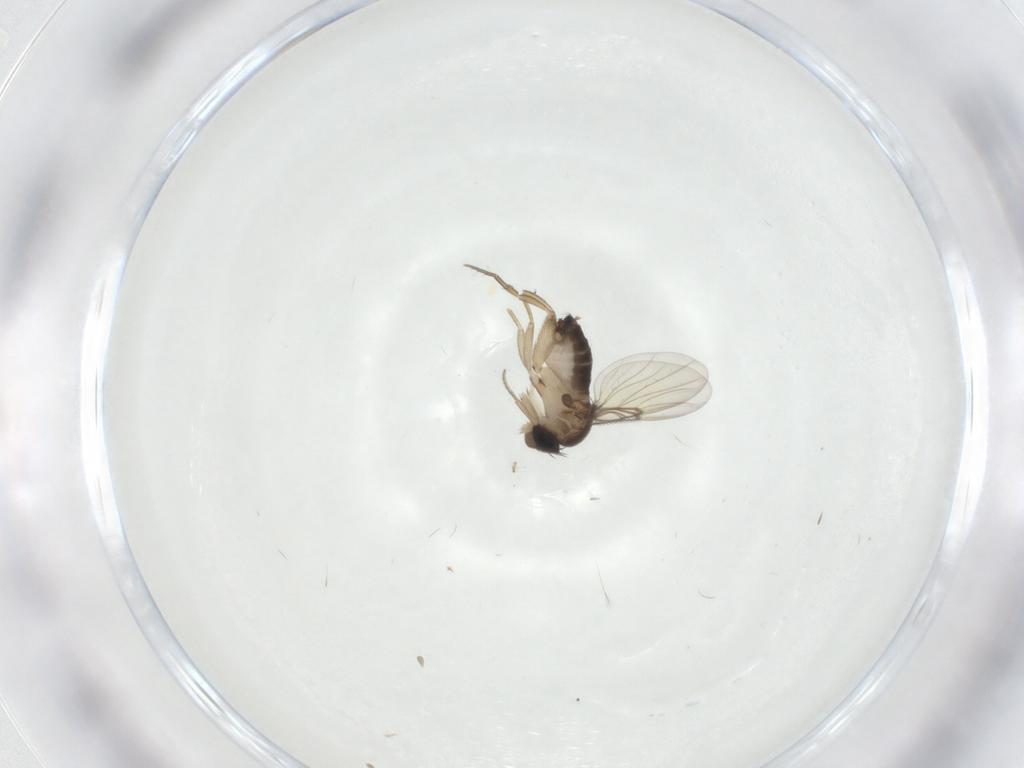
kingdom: Animalia
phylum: Arthropoda
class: Insecta
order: Diptera
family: Phoridae
